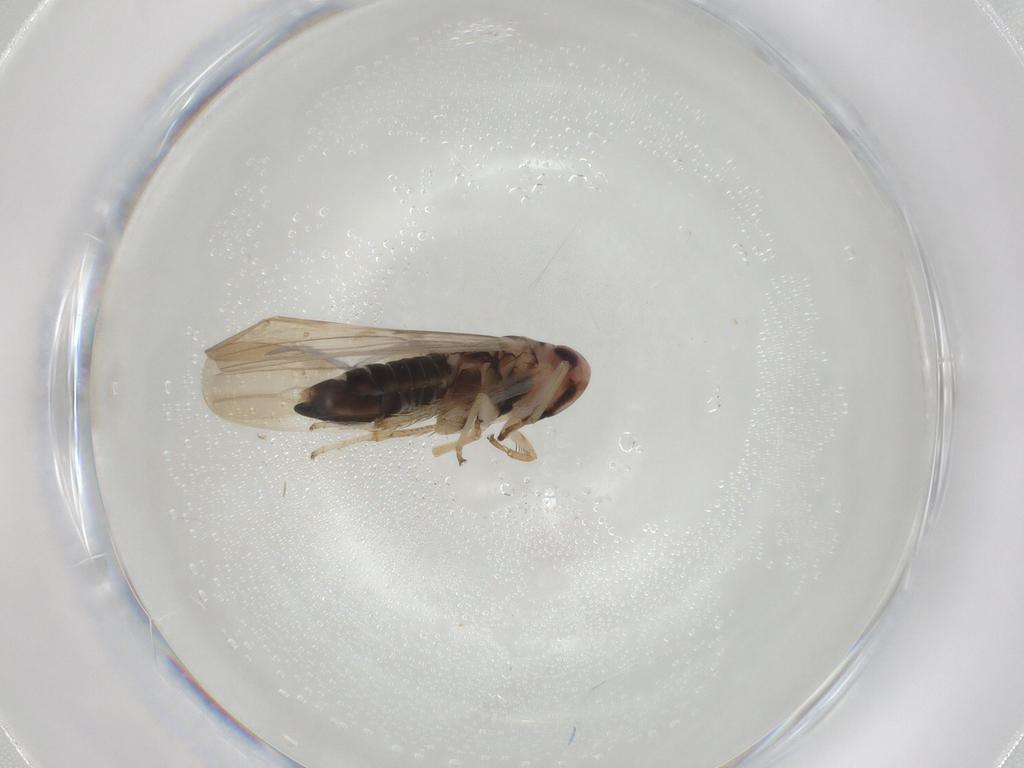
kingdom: Animalia
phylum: Arthropoda
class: Insecta
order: Hemiptera
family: Cicadellidae
